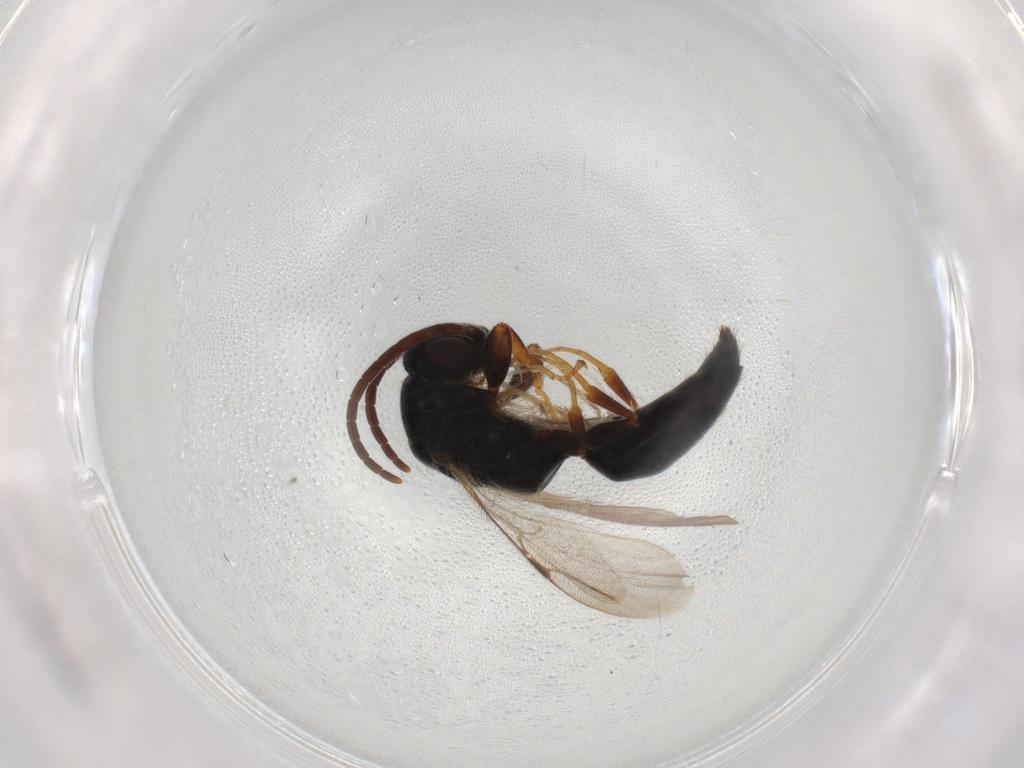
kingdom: Animalia
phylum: Arthropoda
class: Insecta
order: Hymenoptera
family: Bethylidae
